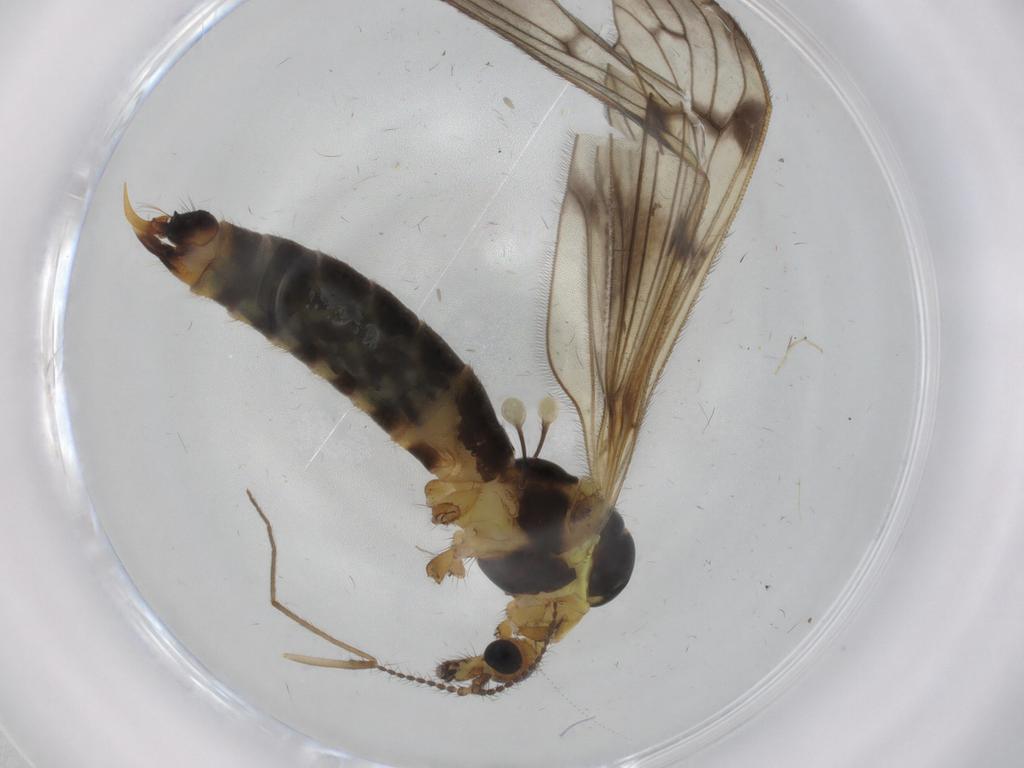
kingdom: Animalia
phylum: Arthropoda
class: Insecta
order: Diptera
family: Limoniidae
